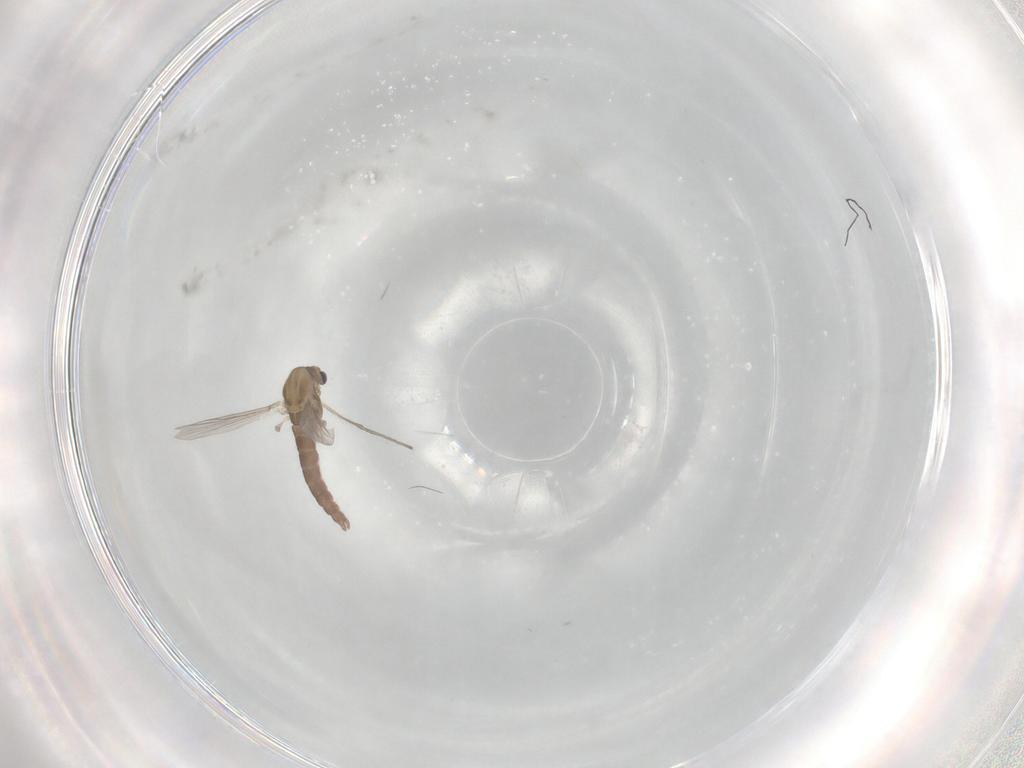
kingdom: Animalia
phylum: Arthropoda
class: Insecta
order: Diptera
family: Chironomidae
